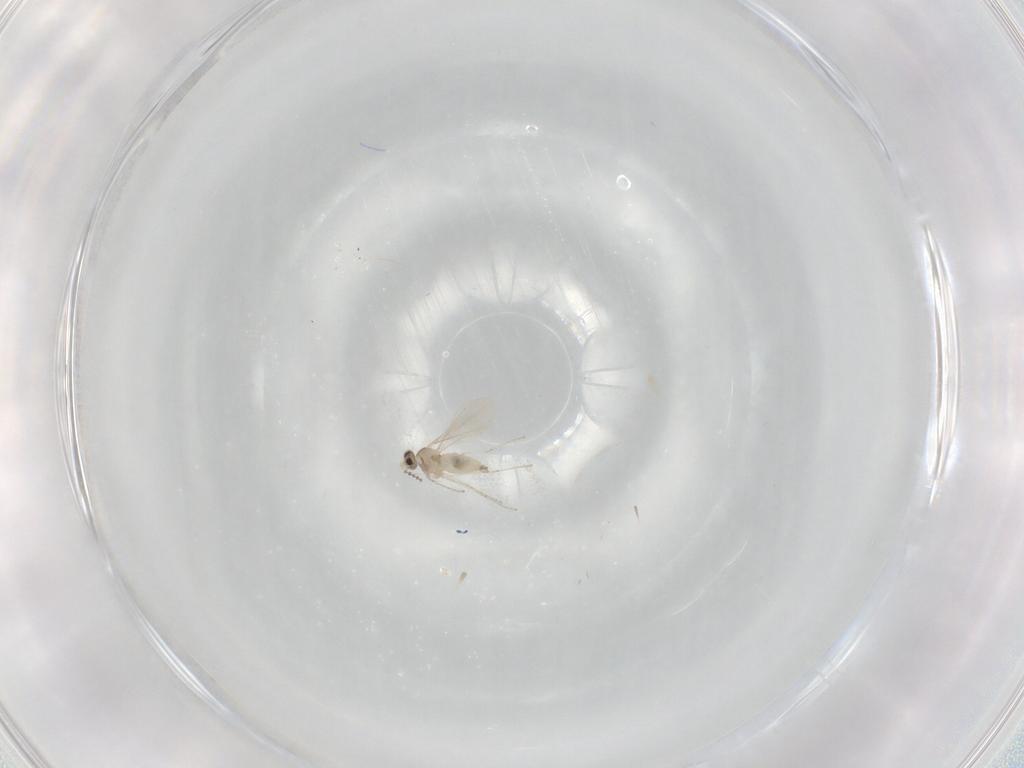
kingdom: Animalia
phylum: Arthropoda
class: Insecta
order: Diptera
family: Cecidomyiidae
